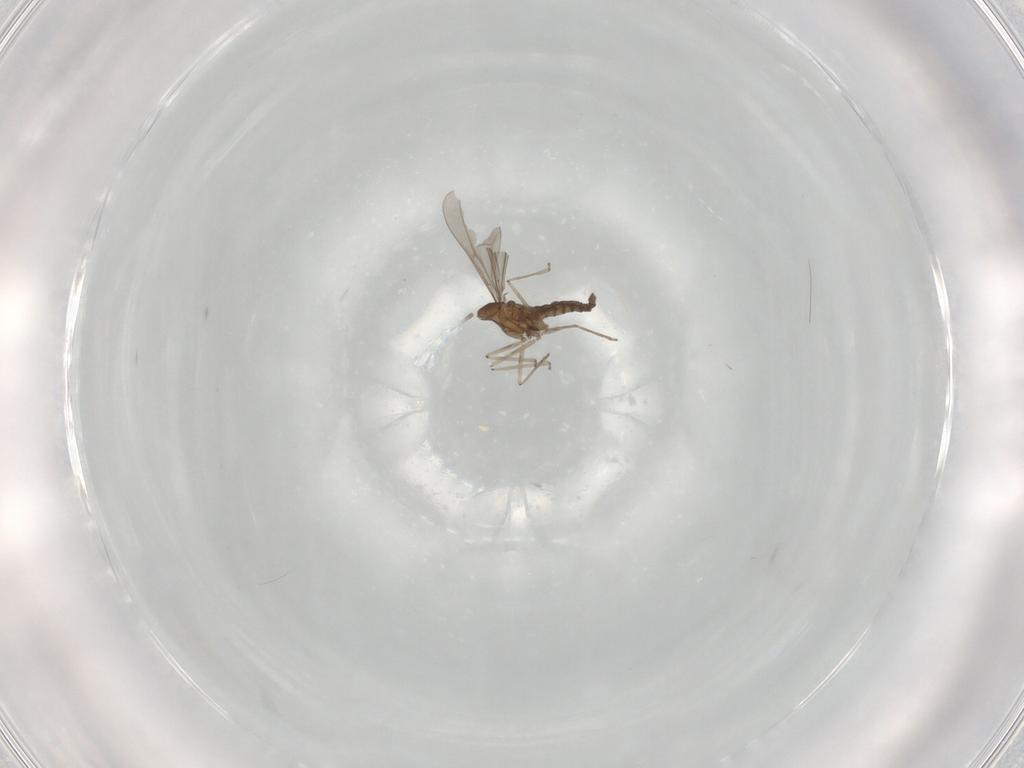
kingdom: Animalia
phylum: Arthropoda
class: Insecta
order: Diptera
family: Cecidomyiidae
